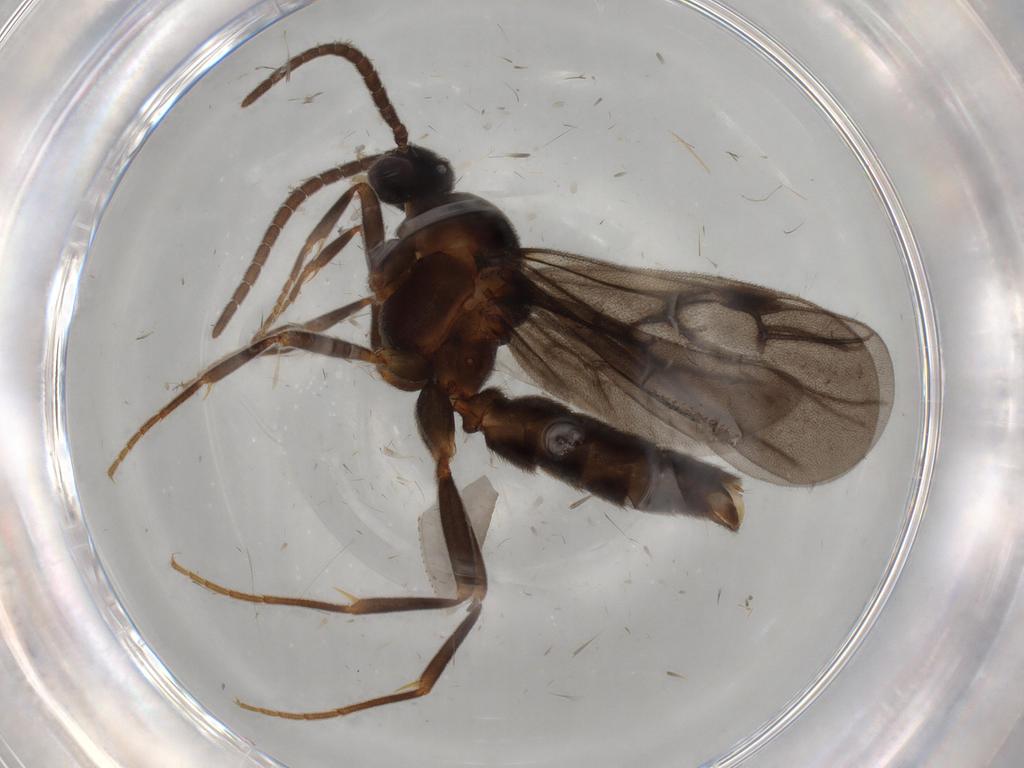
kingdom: Animalia
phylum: Arthropoda
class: Insecta
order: Hymenoptera
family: Formicidae
